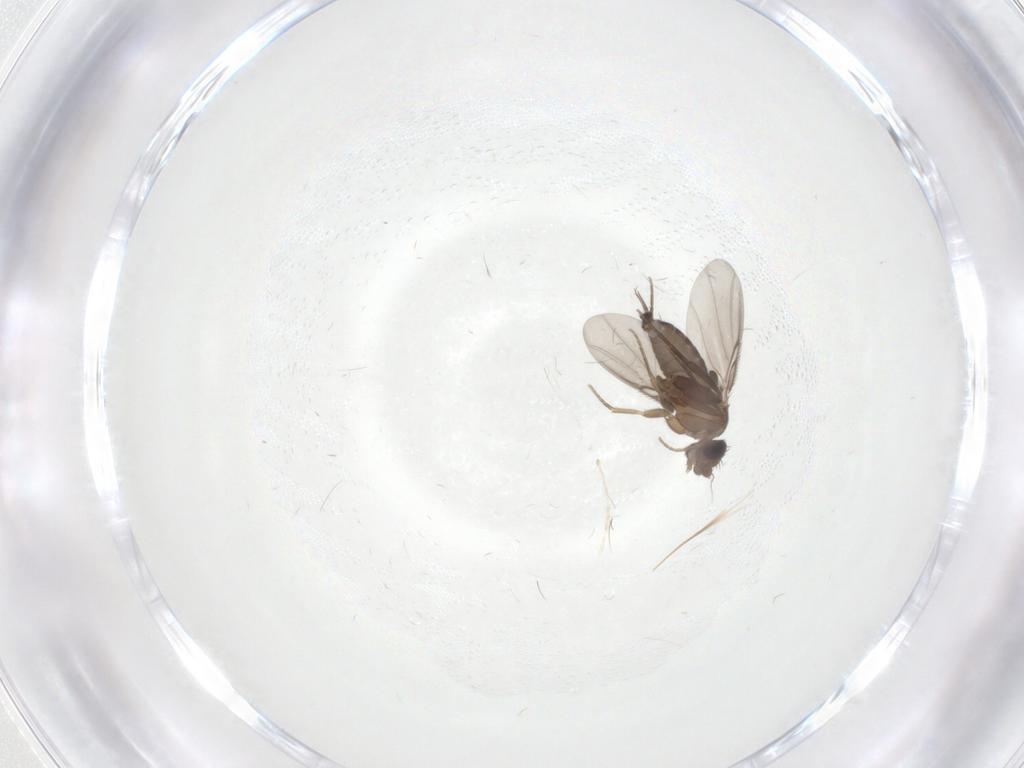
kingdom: Animalia
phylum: Arthropoda
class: Insecta
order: Diptera
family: Phoridae
